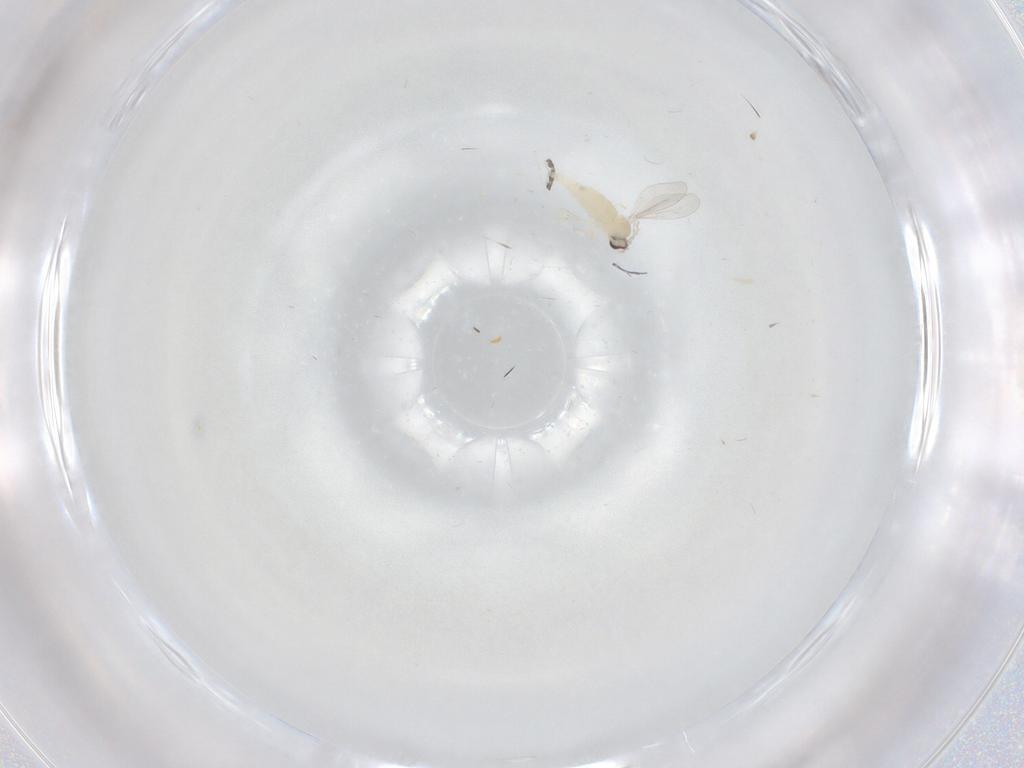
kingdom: Animalia
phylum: Arthropoda
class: Insecta
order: Diptera
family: Cecidomyiidae
